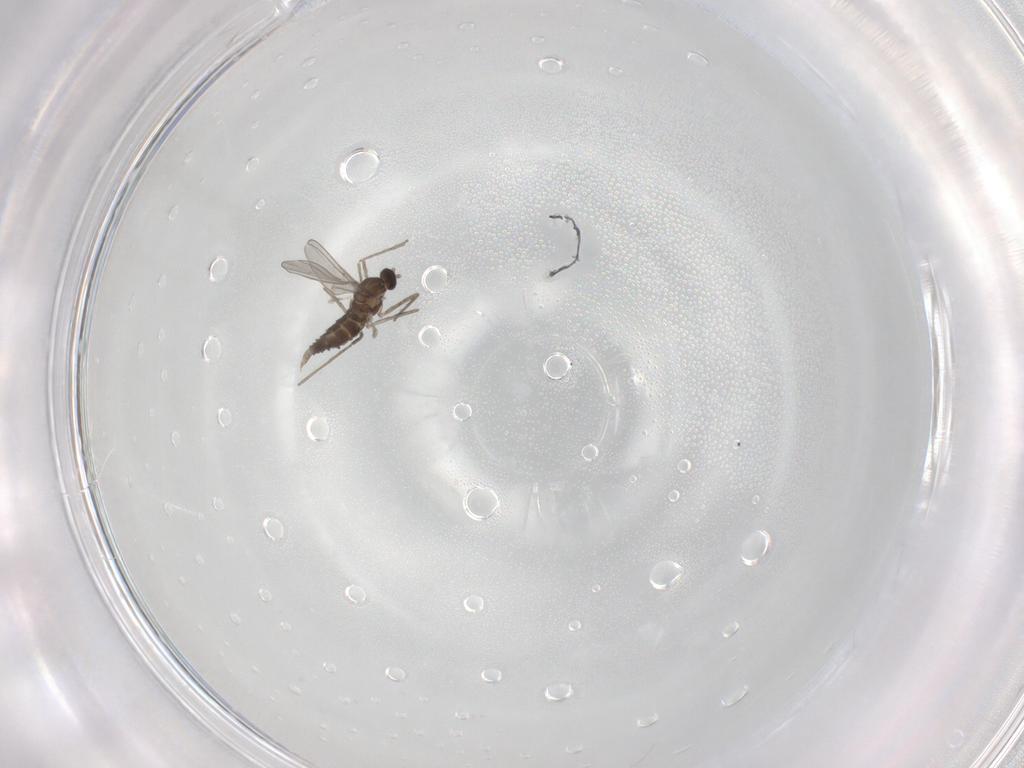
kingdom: Animalia
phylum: Arthropoda
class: Insecta
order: Diptera
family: Cecidomyiidae
